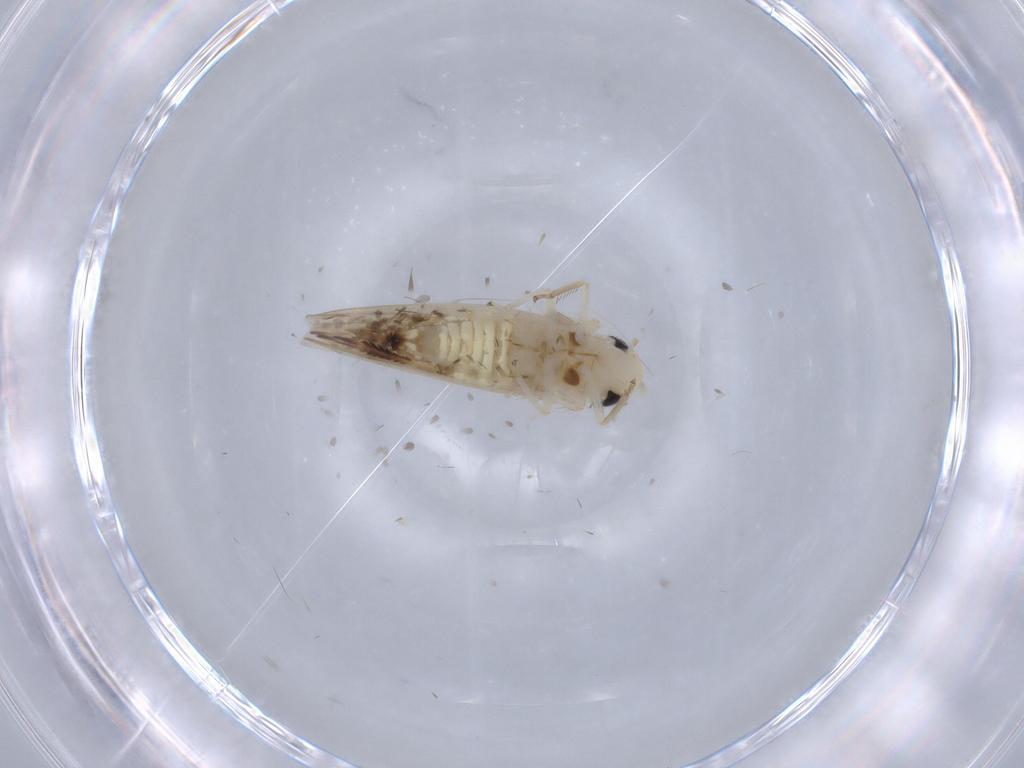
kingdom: Animalia
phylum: Arthropoda
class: Insecta
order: Hemiptera
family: Cicadellidae
